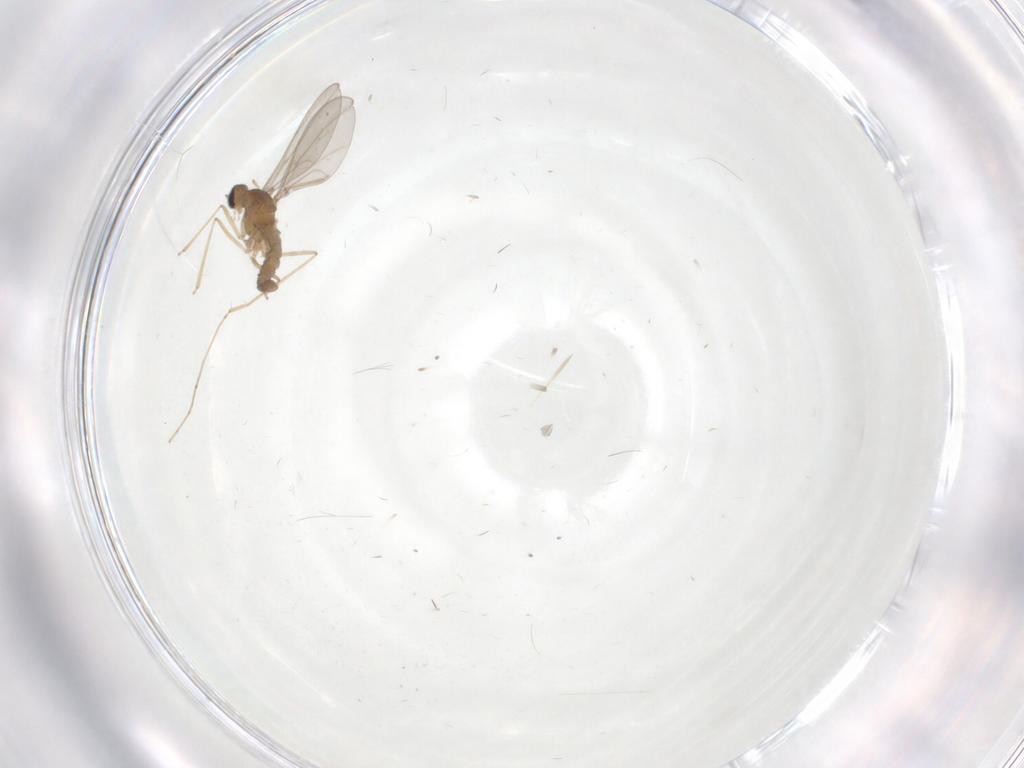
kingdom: Animalia
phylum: Arthropoda
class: Insecta
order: Diptera
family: Cecidomyiidae
